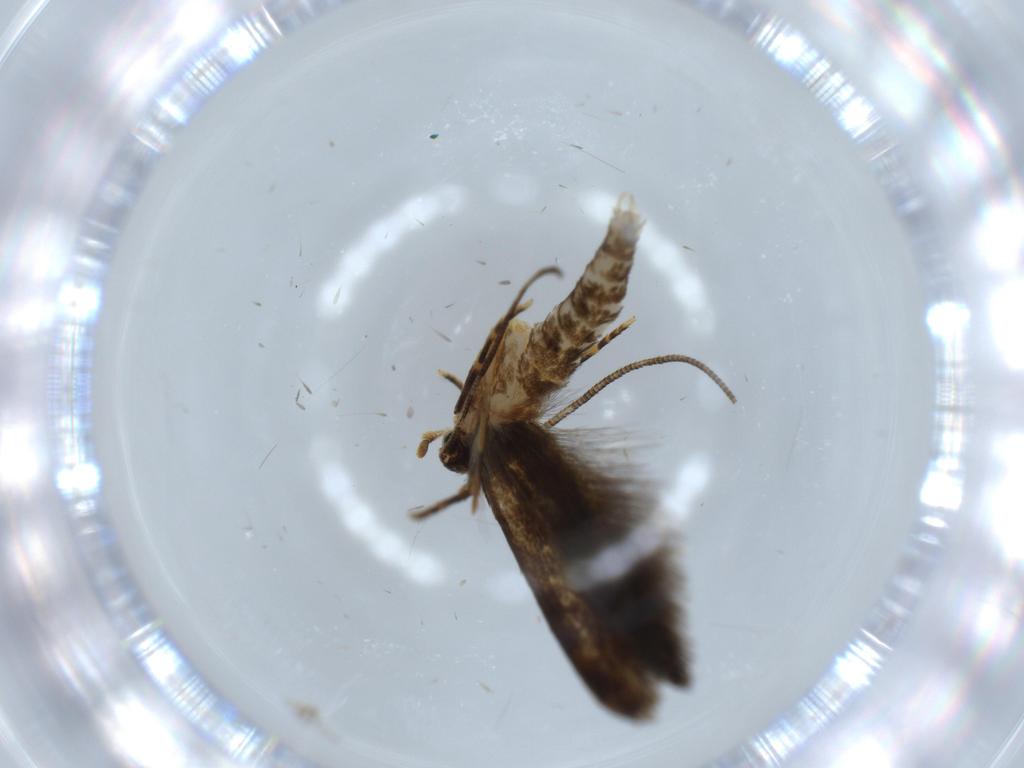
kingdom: Animalia
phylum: Arthropoda
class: Insecta
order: Lepidoptera
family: Tineidae
